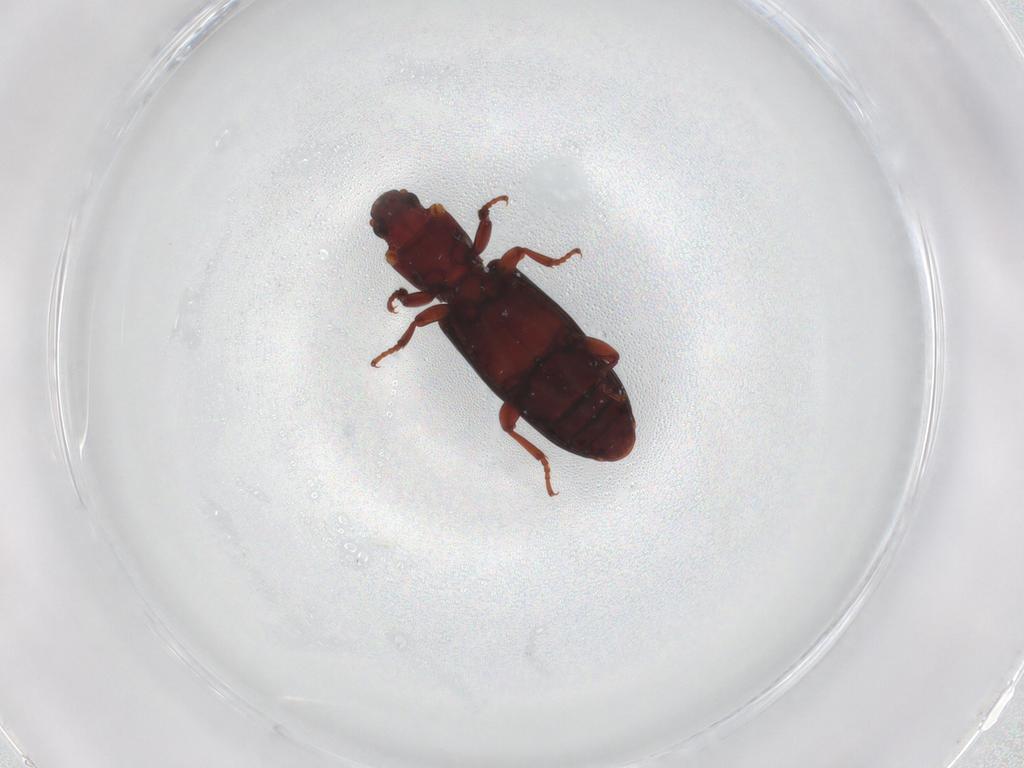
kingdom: Animalia
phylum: Arthropoda
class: Insecta
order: Coleoptera
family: Bothrideridae
